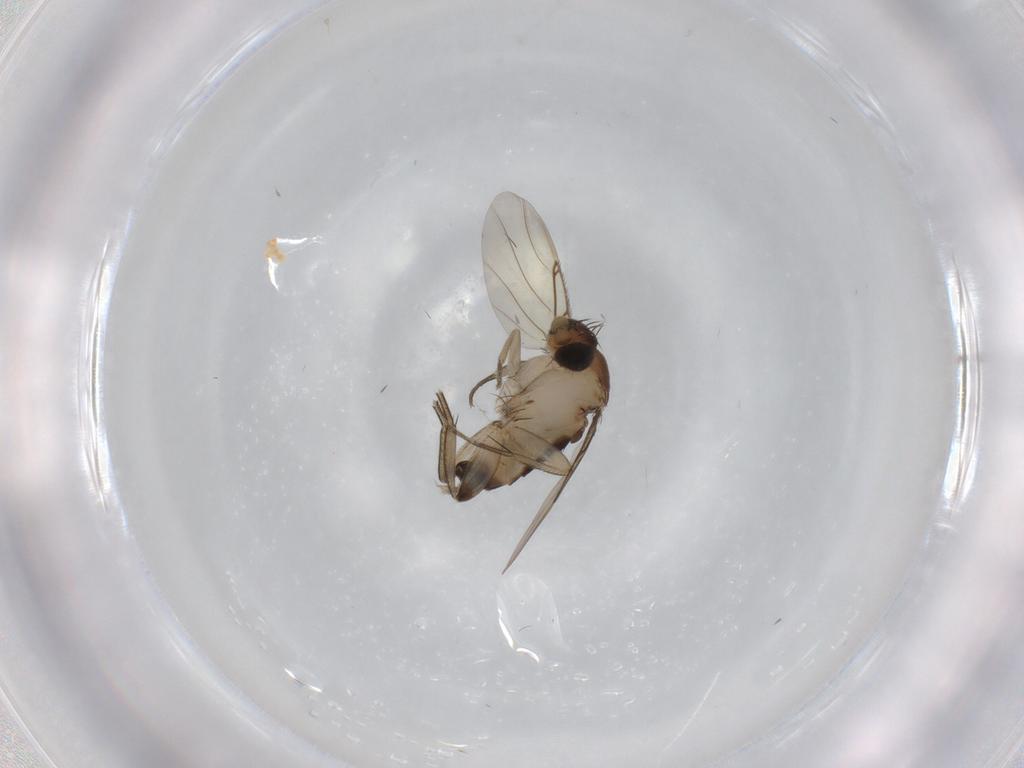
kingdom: Animalia
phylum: Arthropoda
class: Insecta
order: Diptera
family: Phoridae
